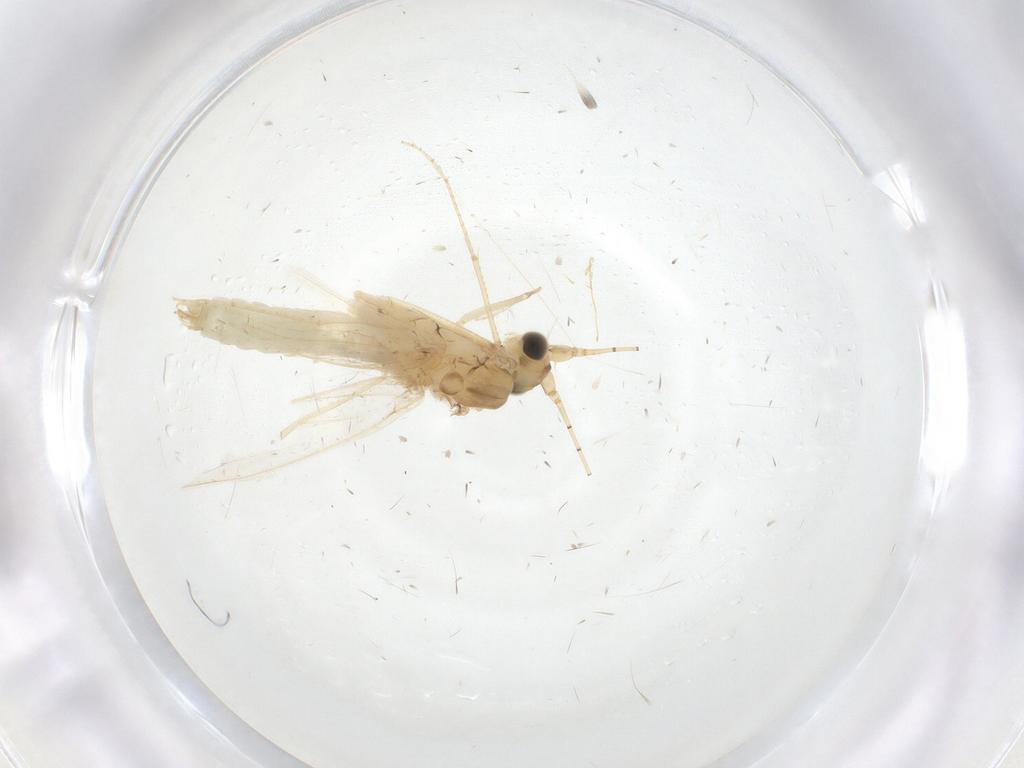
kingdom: Animalia
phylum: Arthropoda
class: Insecta
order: Trichoptera
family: Leptoceridae
